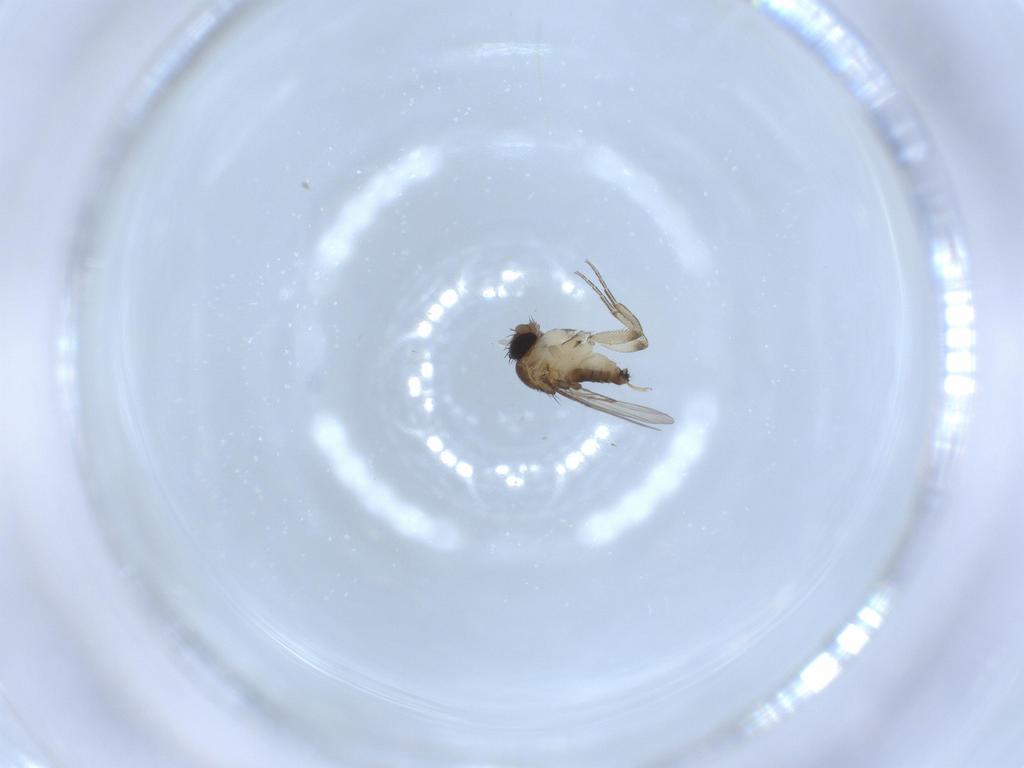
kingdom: Animalia
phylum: Arthropoda
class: Insecta
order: Diptera
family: Phoridae
